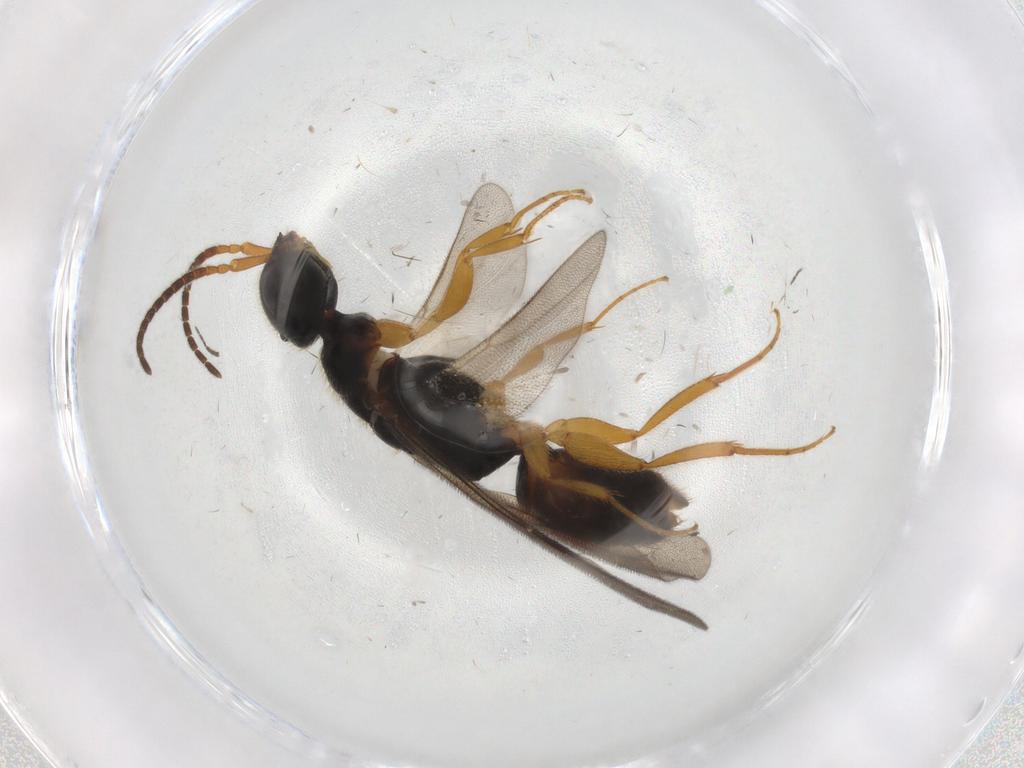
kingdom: Animalia
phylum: Arthropoda
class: Insecta
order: Hymenoptera
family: Bethylidae
